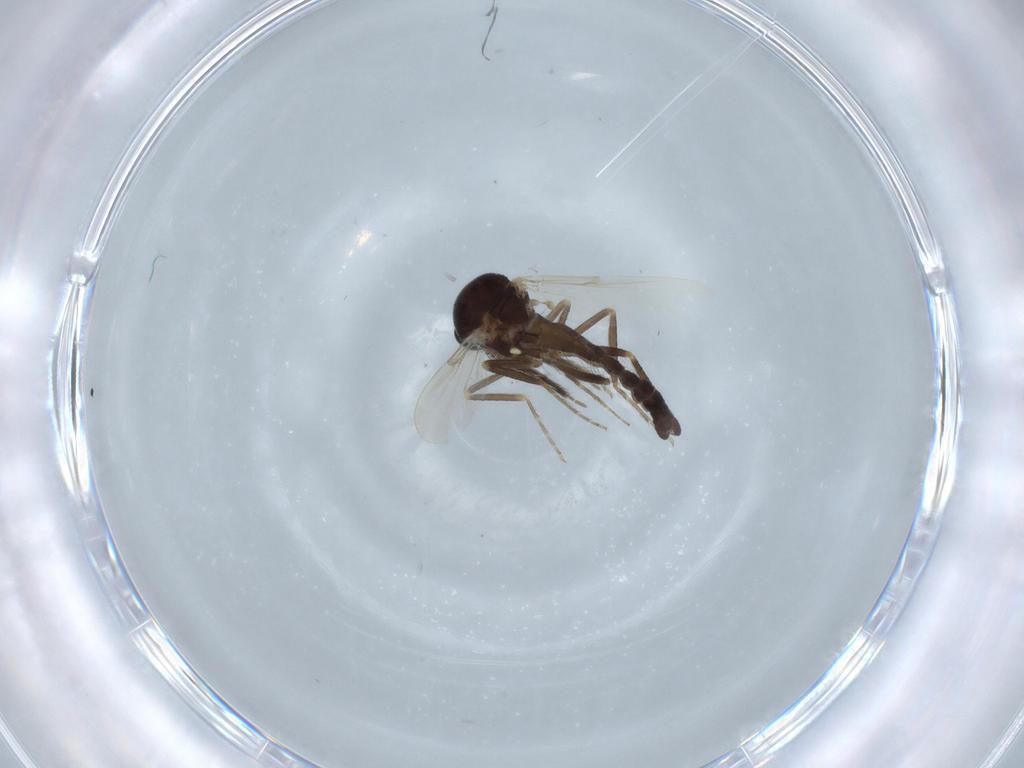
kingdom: Animalia
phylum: Arthropoda
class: Insecta
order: Diptera
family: Ceratopogonidae
